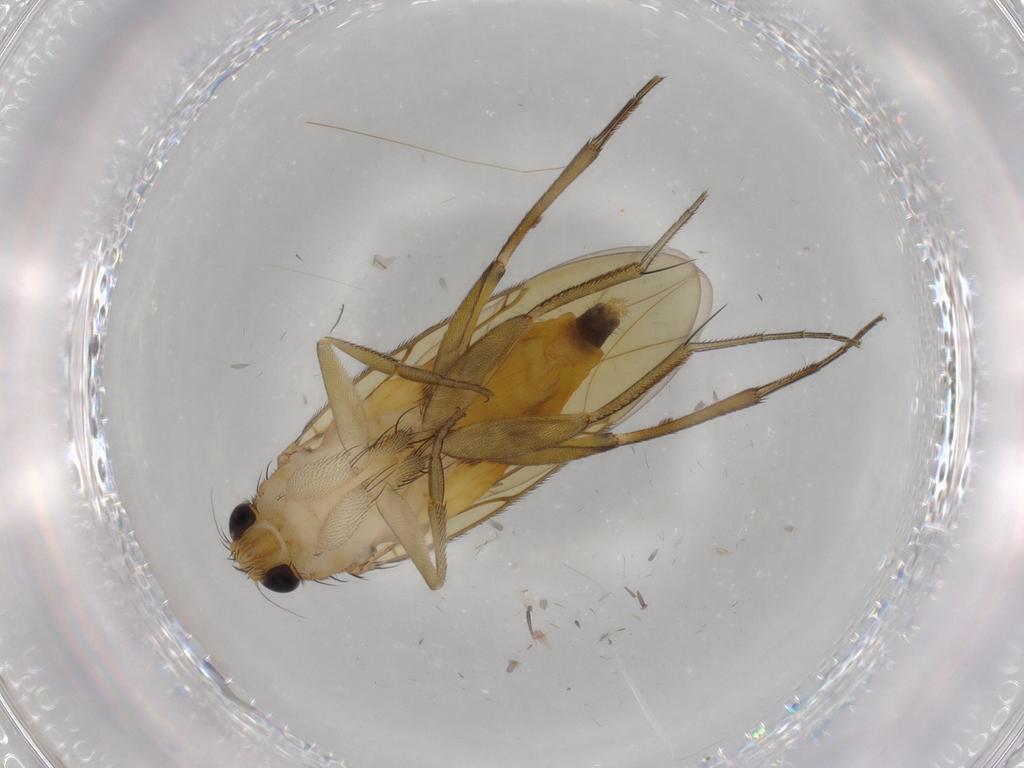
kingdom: Animalia
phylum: Arthropoda
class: Insecta
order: Diptera
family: Phoridae
